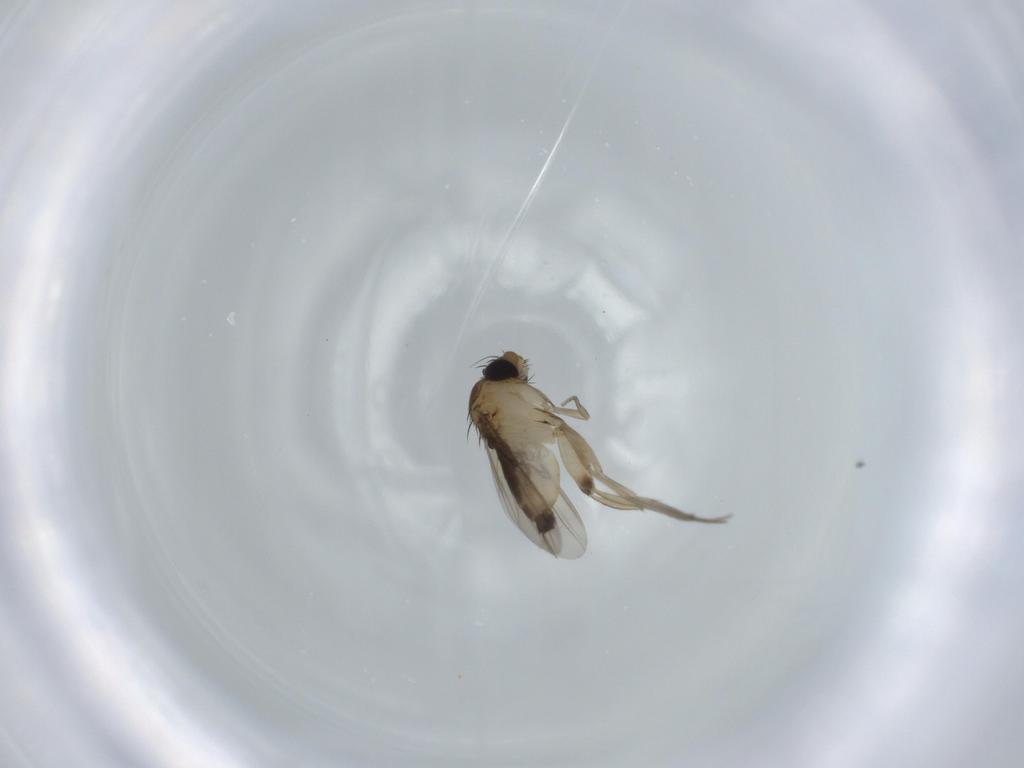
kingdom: Animalia
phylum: Arthropoda
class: Insecta
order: Diptera
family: Phoridae
